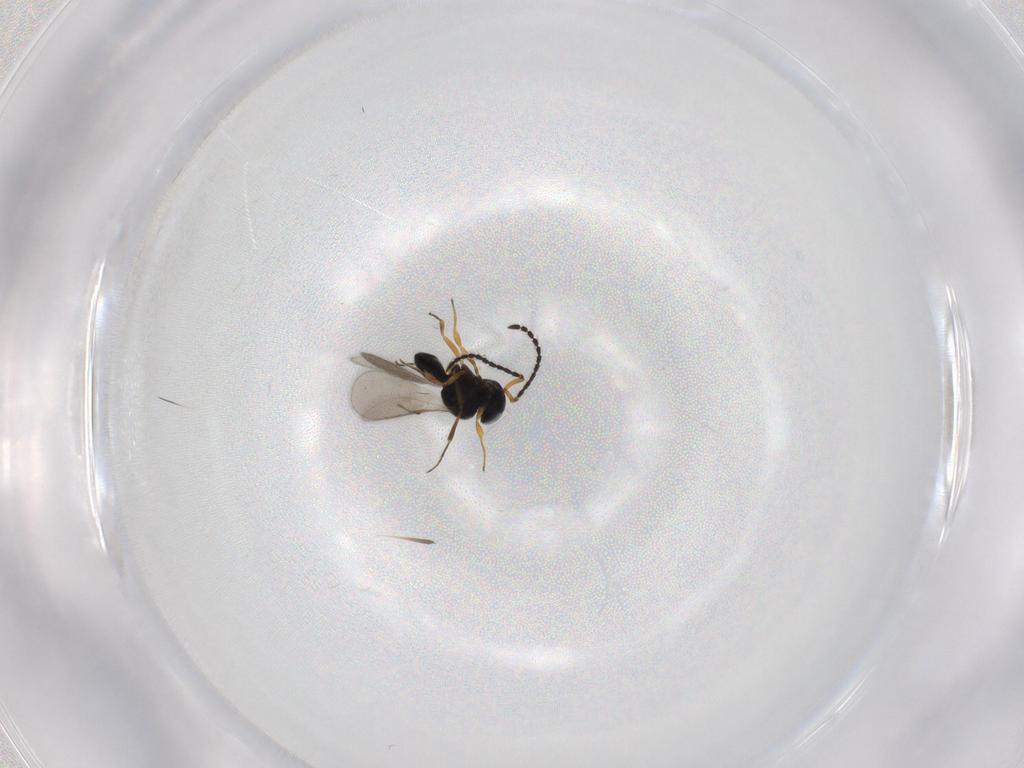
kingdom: Animalia
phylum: Arthropoda
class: Insecta
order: Hymenoptera
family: Scelionidae
